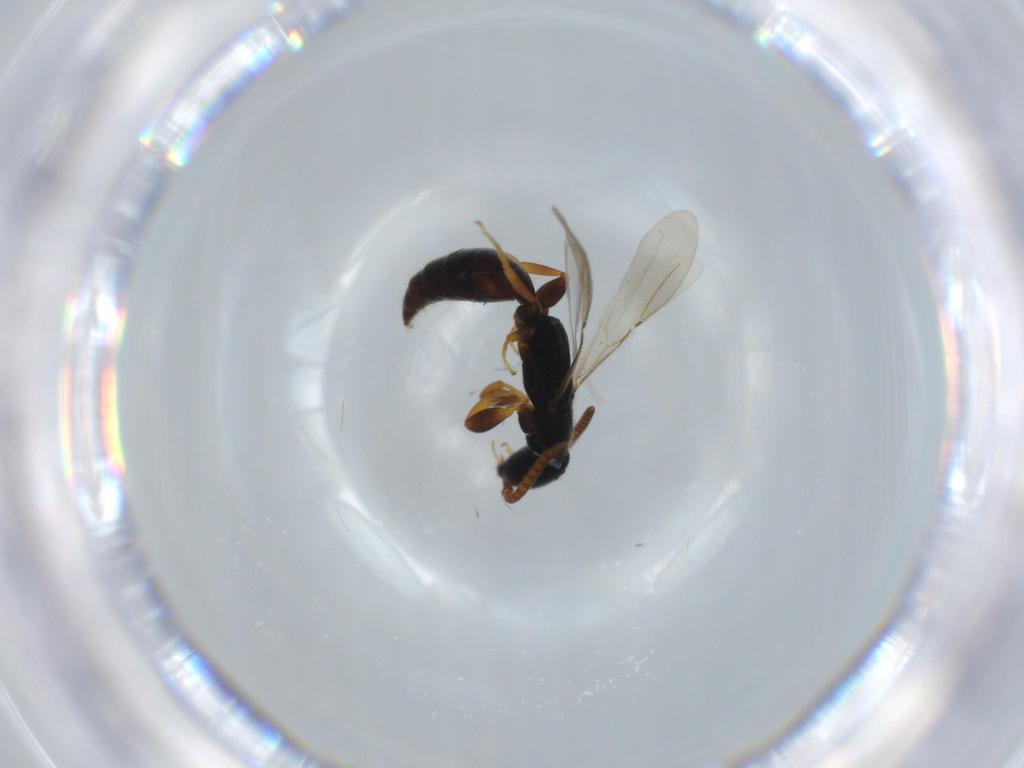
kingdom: Animalia
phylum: Arthropoda
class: Insecta
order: Hymenoptera
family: Bethylidae
